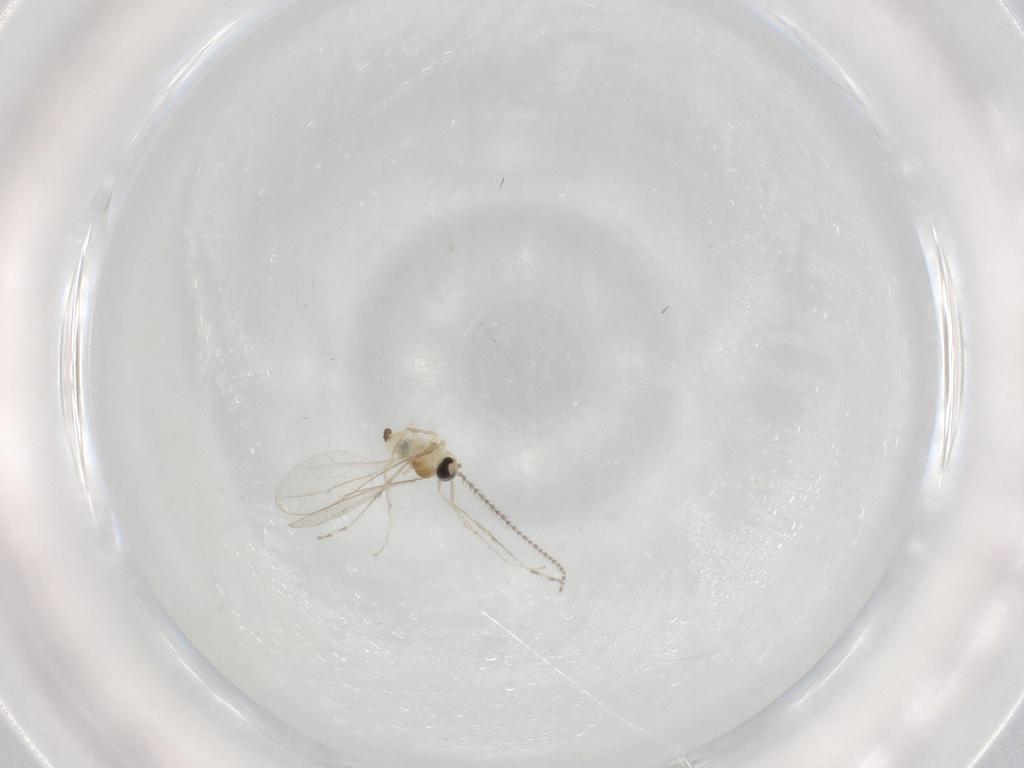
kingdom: Animalia
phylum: Arthropoda
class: Insecta
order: Diptera
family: Cecidomyiidae
